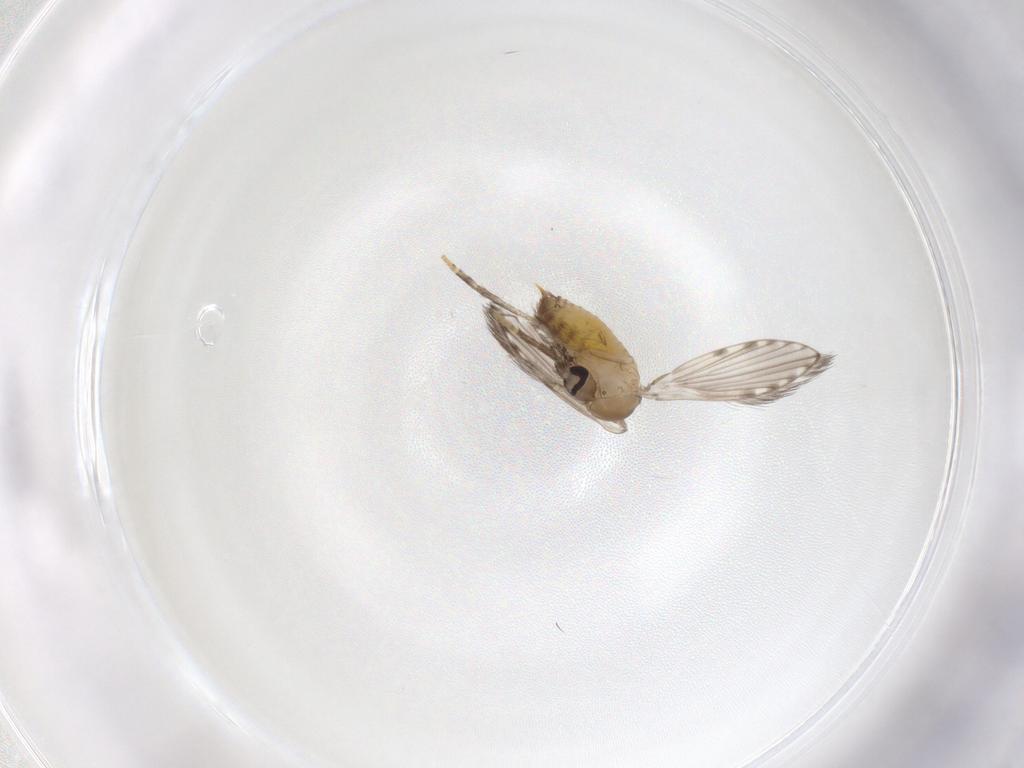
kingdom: Animalia
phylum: Arthropoda
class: Insecta
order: Diptera
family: Psychodidae
